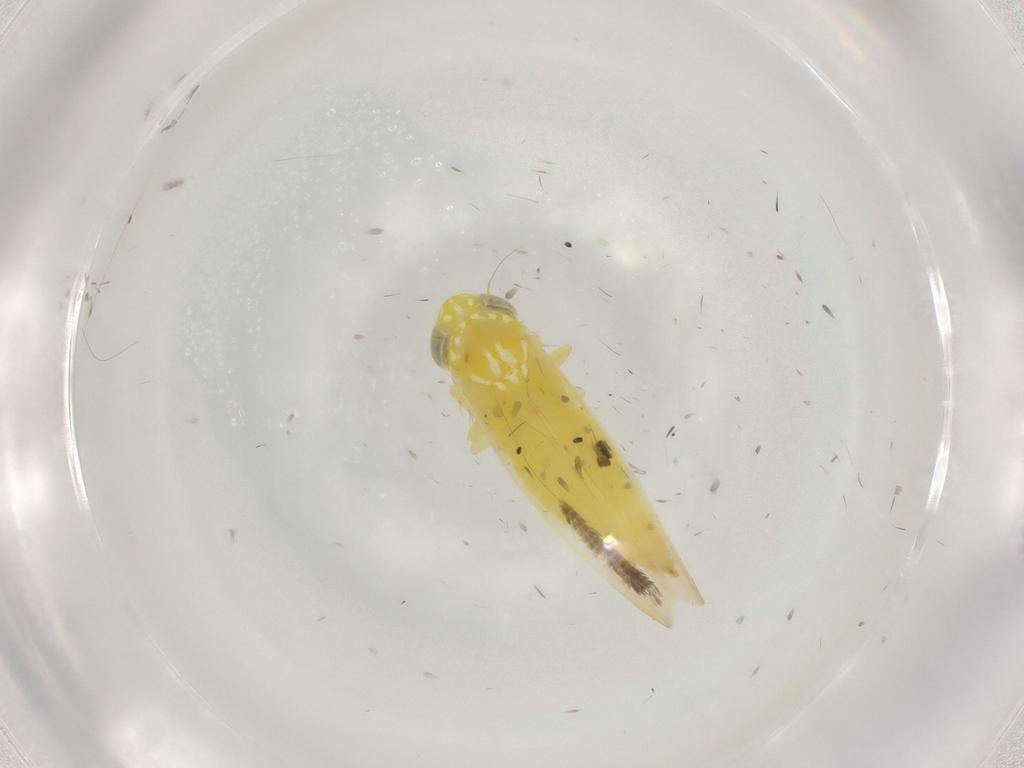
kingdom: Animalia
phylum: Arthropoda
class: Insecta
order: Hemiptera
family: Cicadellidae
